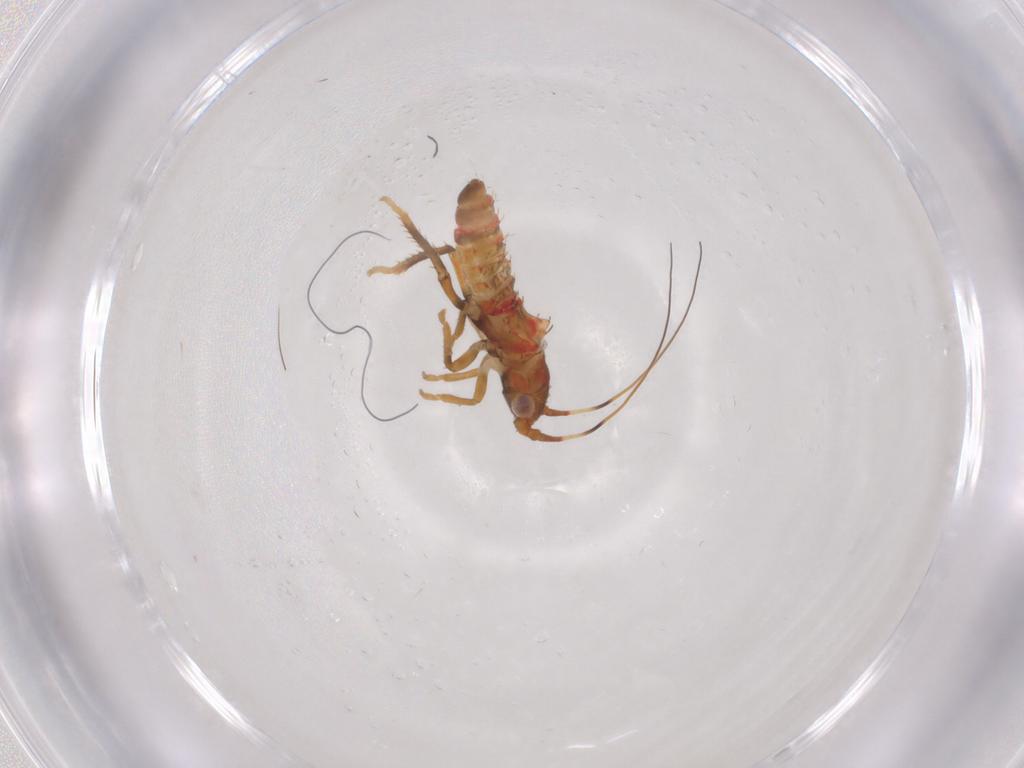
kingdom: Animalia
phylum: Arthropoda
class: Insecta
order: Hemiptera
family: Cicadellidae
